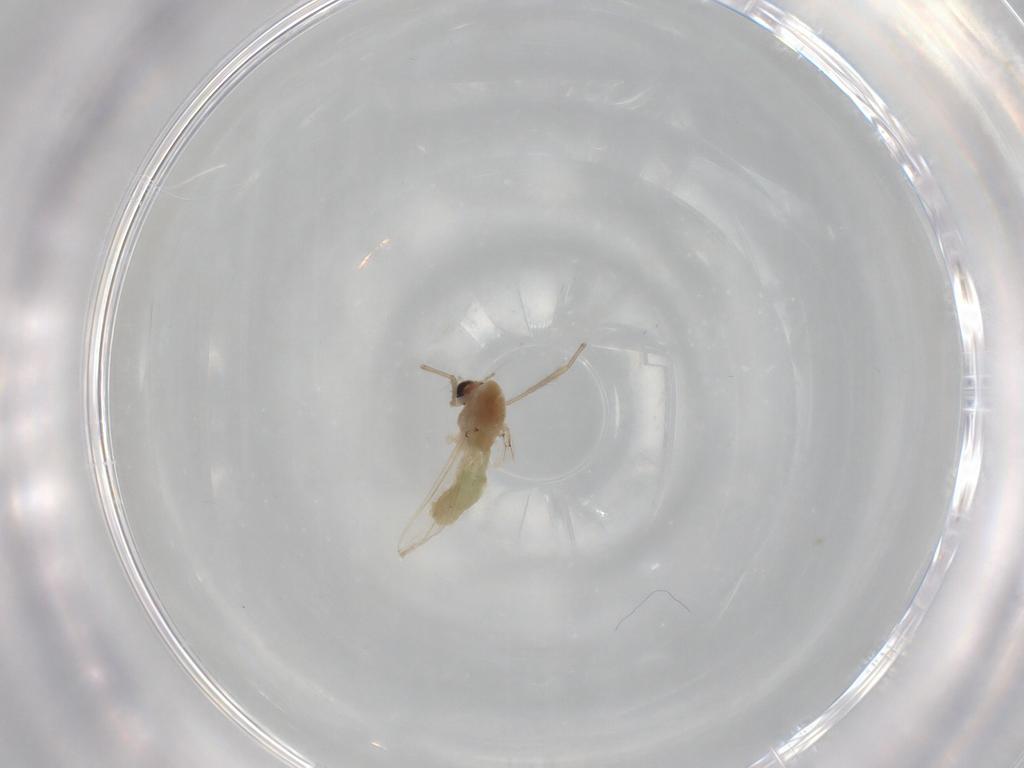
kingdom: Animalia
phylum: Arthropoda
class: Insecta
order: Diptera
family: Chironomidae
